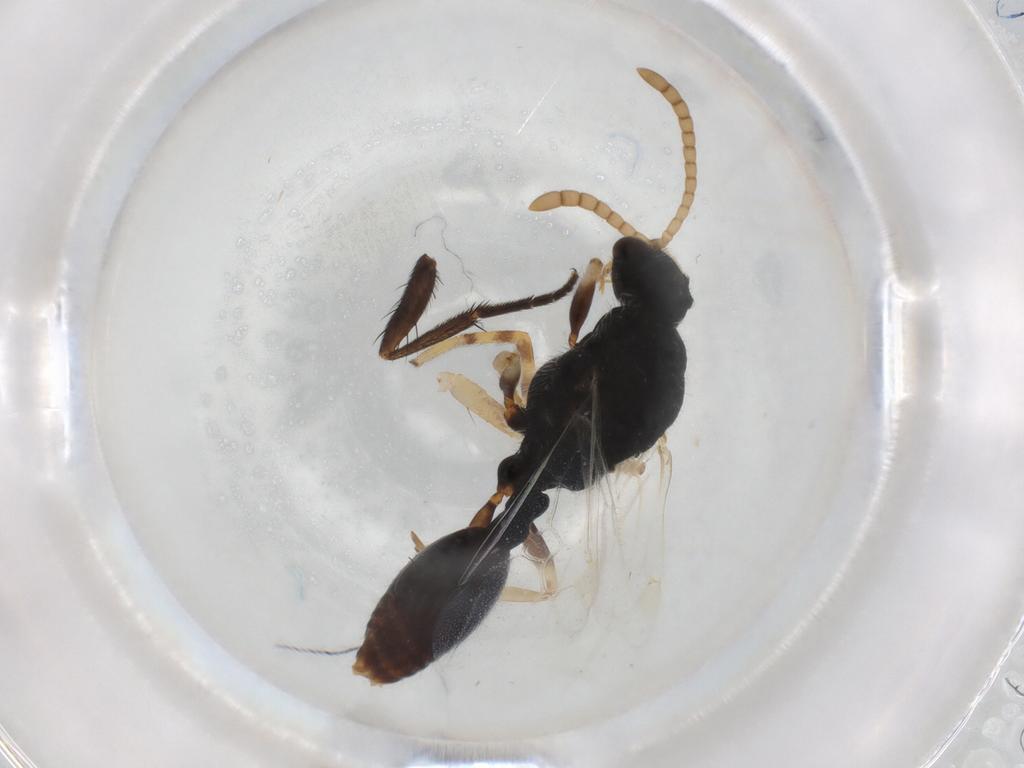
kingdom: Animalia
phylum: Arthropoda
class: Insecta
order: Hymenoptera
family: Formicidae
